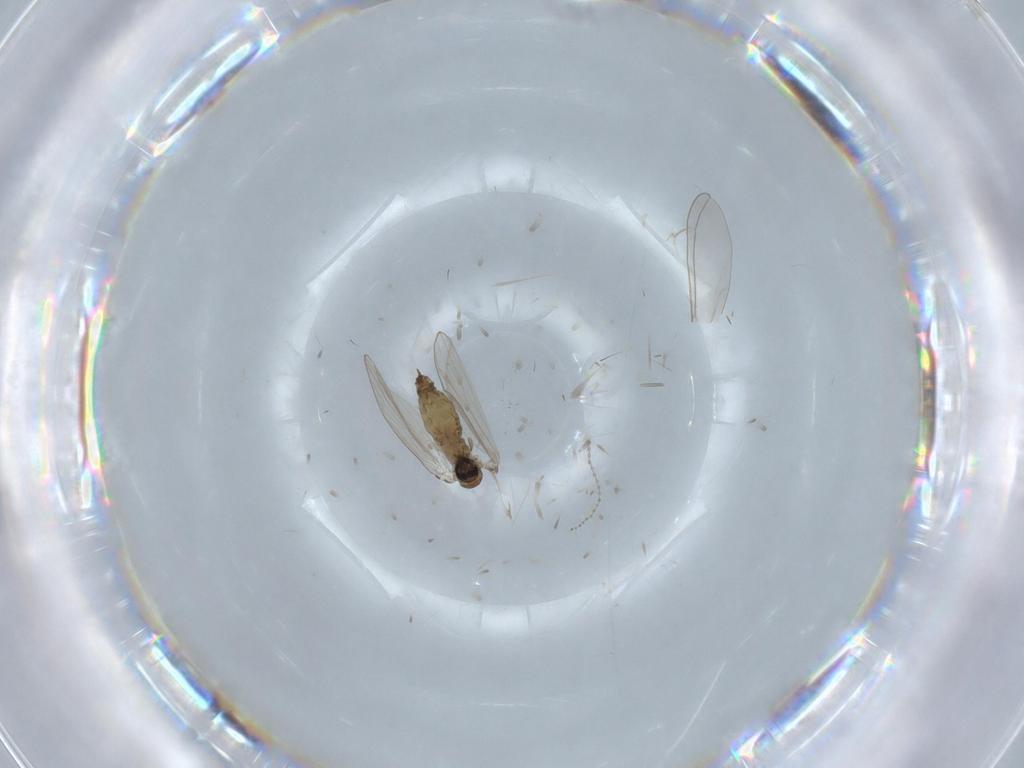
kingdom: Animalia
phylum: Arthropoda
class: Insecta
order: Diptera
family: Psychodidae
